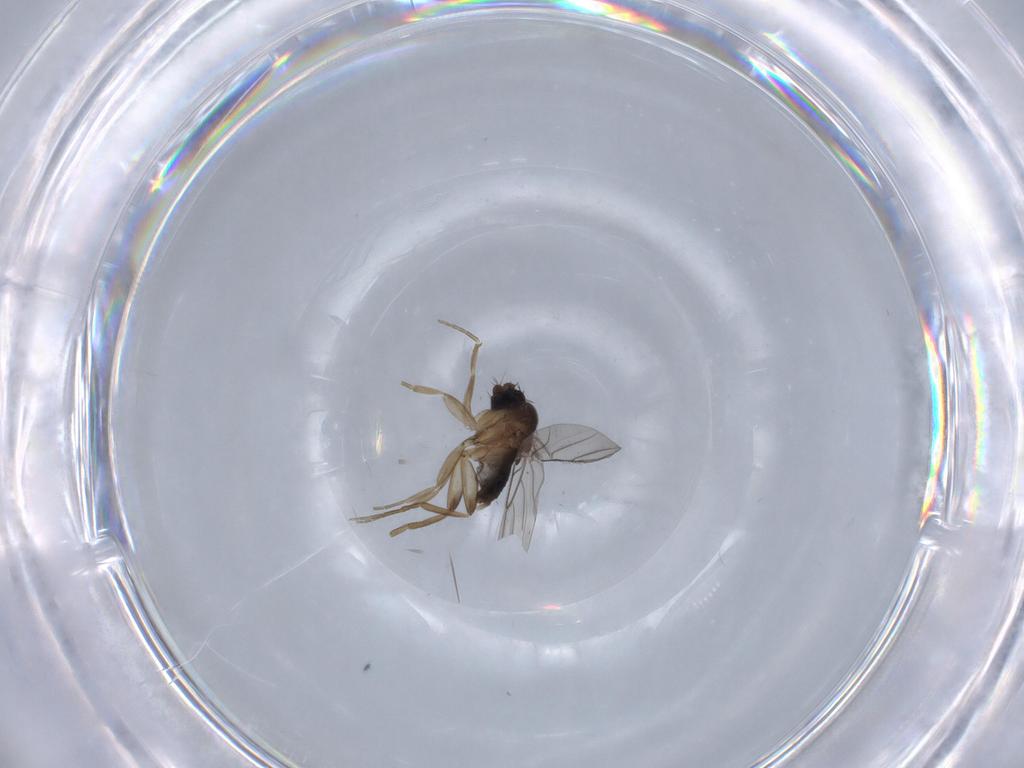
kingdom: Animalia
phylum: Arthropoda
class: Insecta
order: Diptera
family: Phoridae
